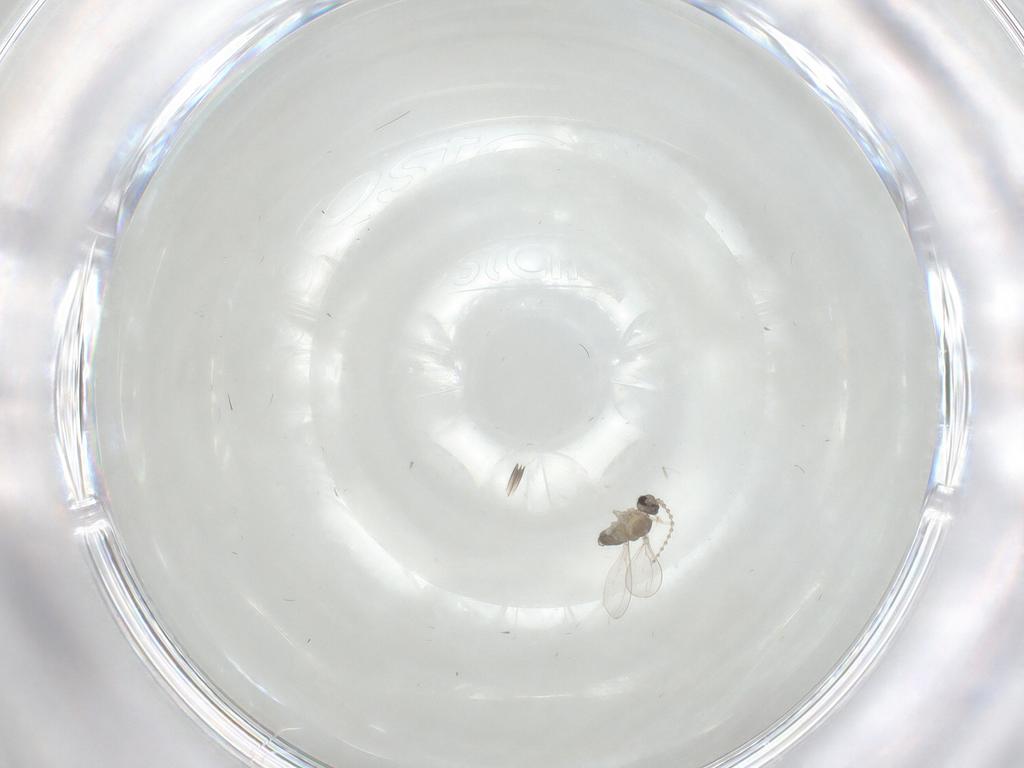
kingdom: Animalia
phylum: Arthropoda
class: Insecta
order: Diptera
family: Cecidomyiidae
